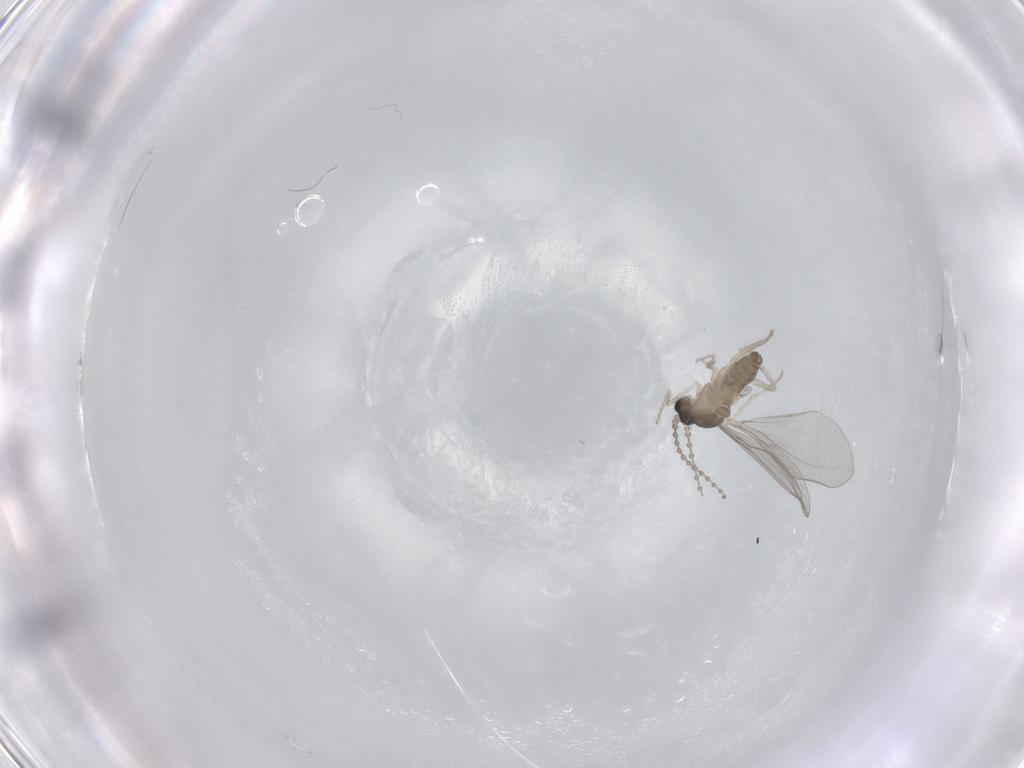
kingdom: Animalia
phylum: Arthropoda
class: Insecta
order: Diptera
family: Cecidomyiidae
